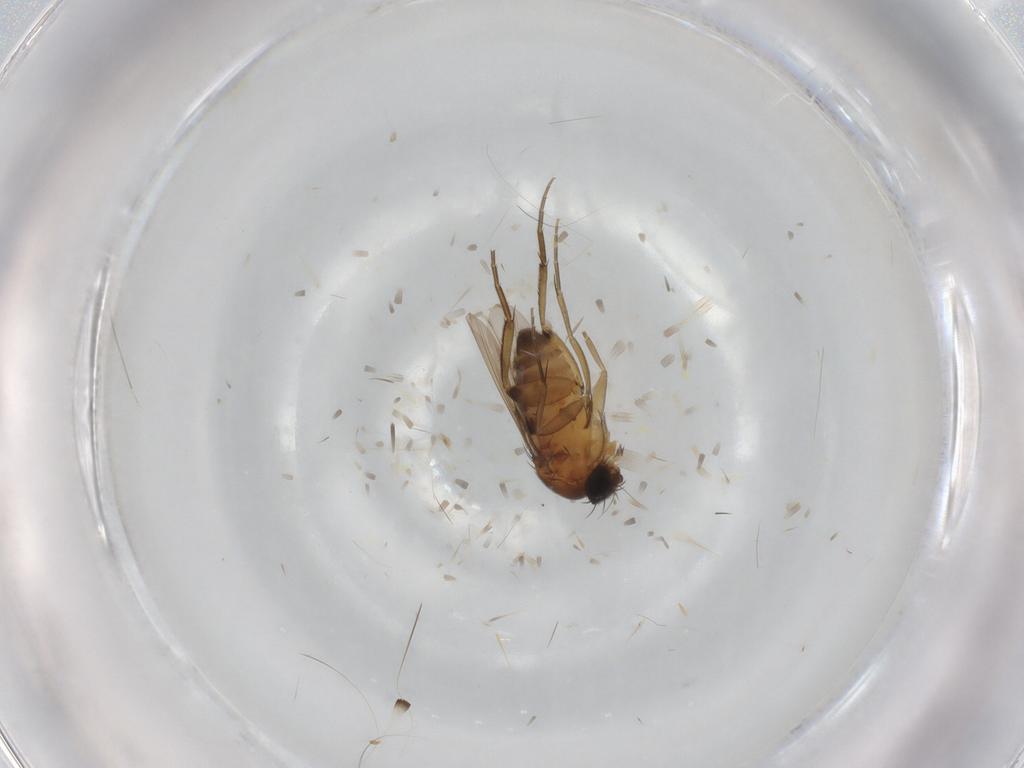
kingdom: Animalia
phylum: Arthropoda
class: Insecta
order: Diptera
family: Phoridae
